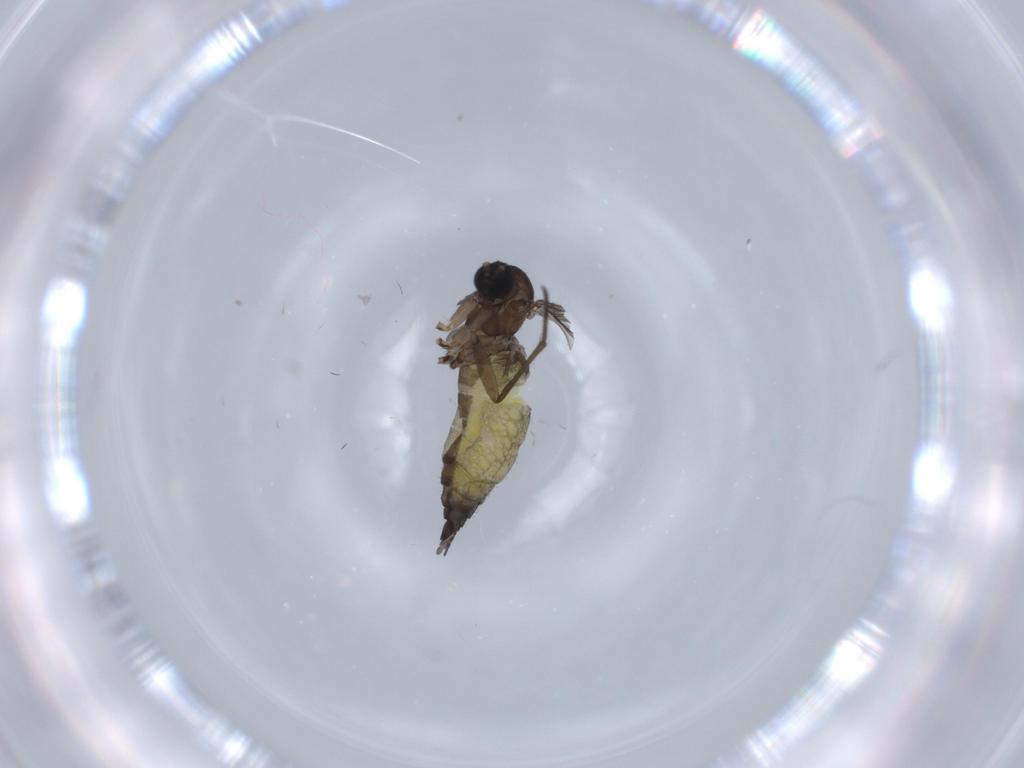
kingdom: Animalia
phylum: Arthropoda
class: Insecta
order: Diptera
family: Sciaridae
